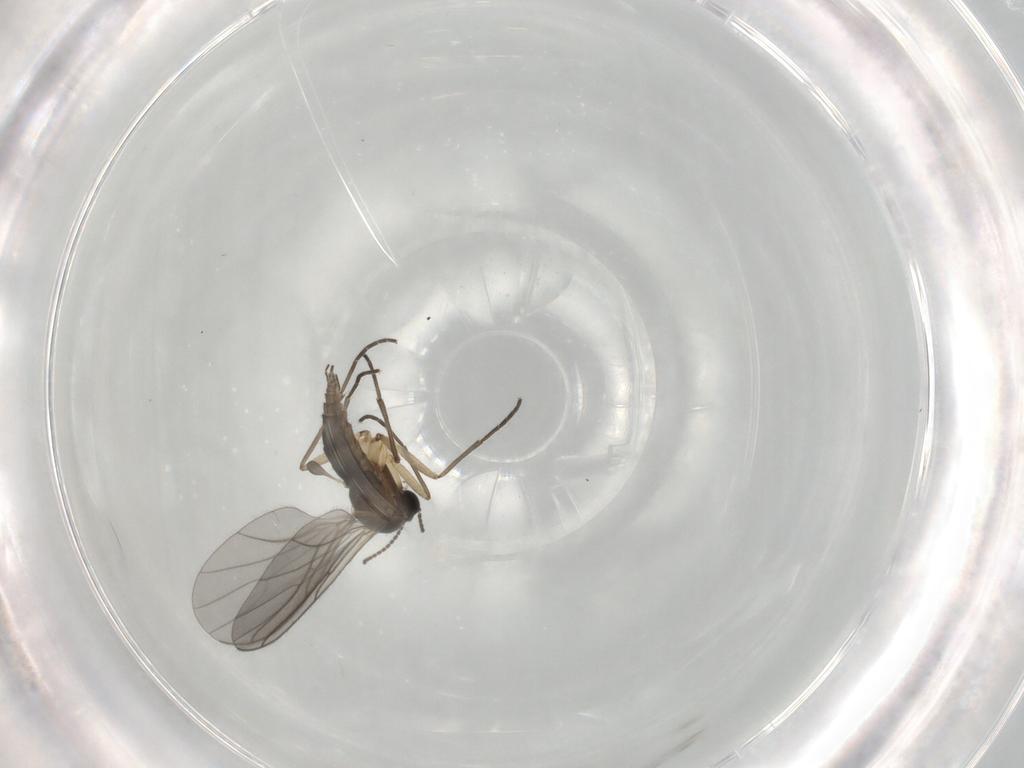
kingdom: Animalia
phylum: Arthropoda
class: Insecta
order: Diptera
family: Sciaridae
